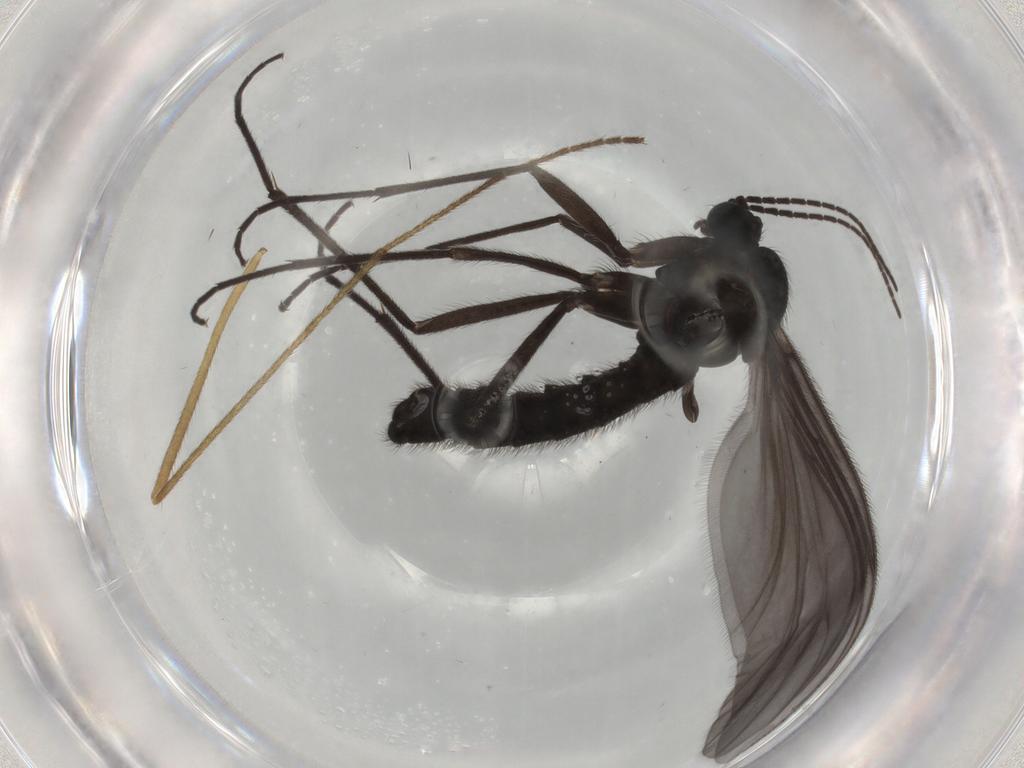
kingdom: Animalia
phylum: Arthropoda
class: Insecta
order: Diptera
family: Sciaridae
